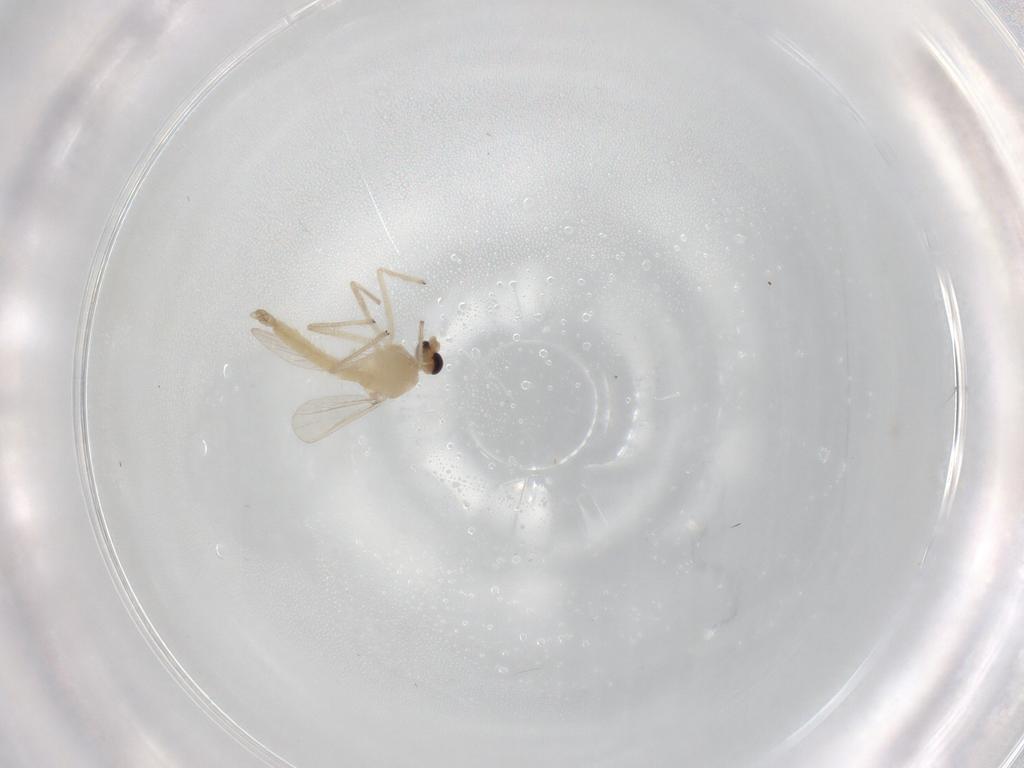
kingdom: Animalia
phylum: Arthropoda
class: Insecta
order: Diptera
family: Chironomidae
